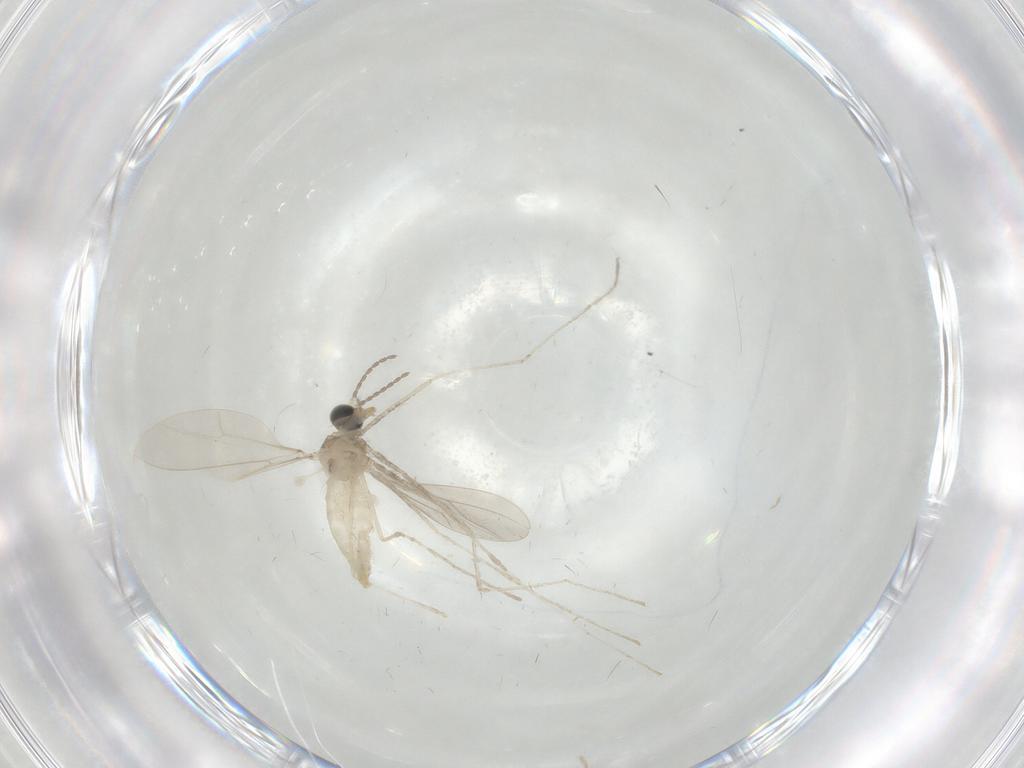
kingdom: Animalia
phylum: Arthropoda
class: Insecta
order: Diptera
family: Cecidomyiidae
